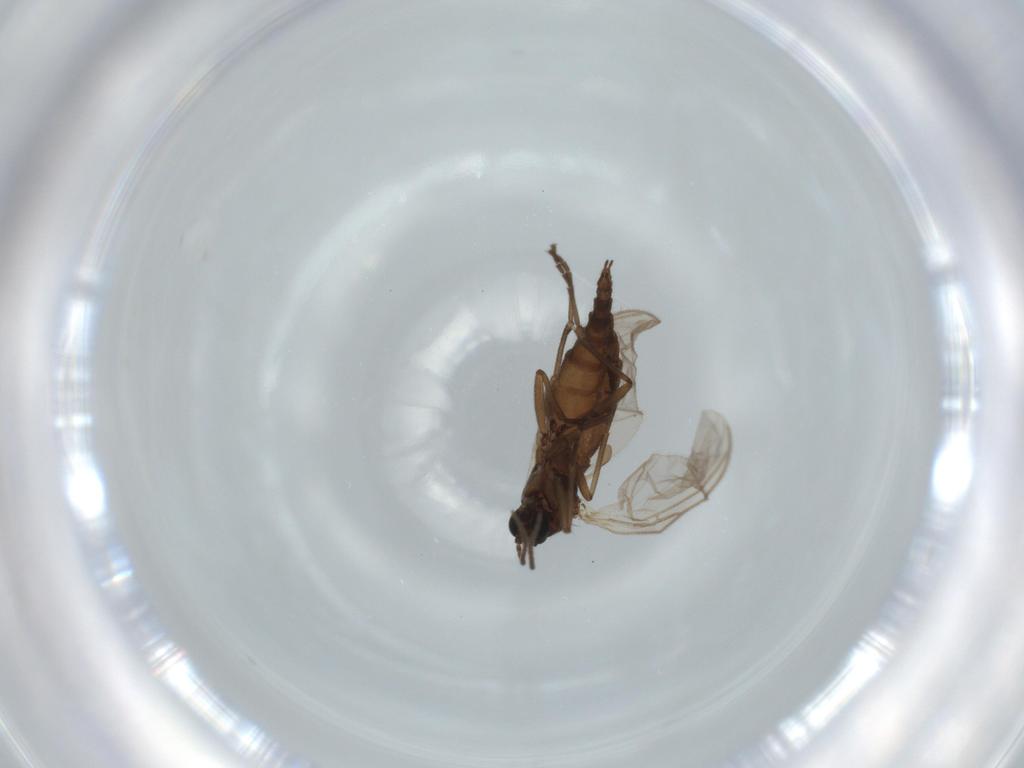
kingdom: Animalia
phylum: Arthropoda
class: Insecta
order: Diptera
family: Sciaridae
